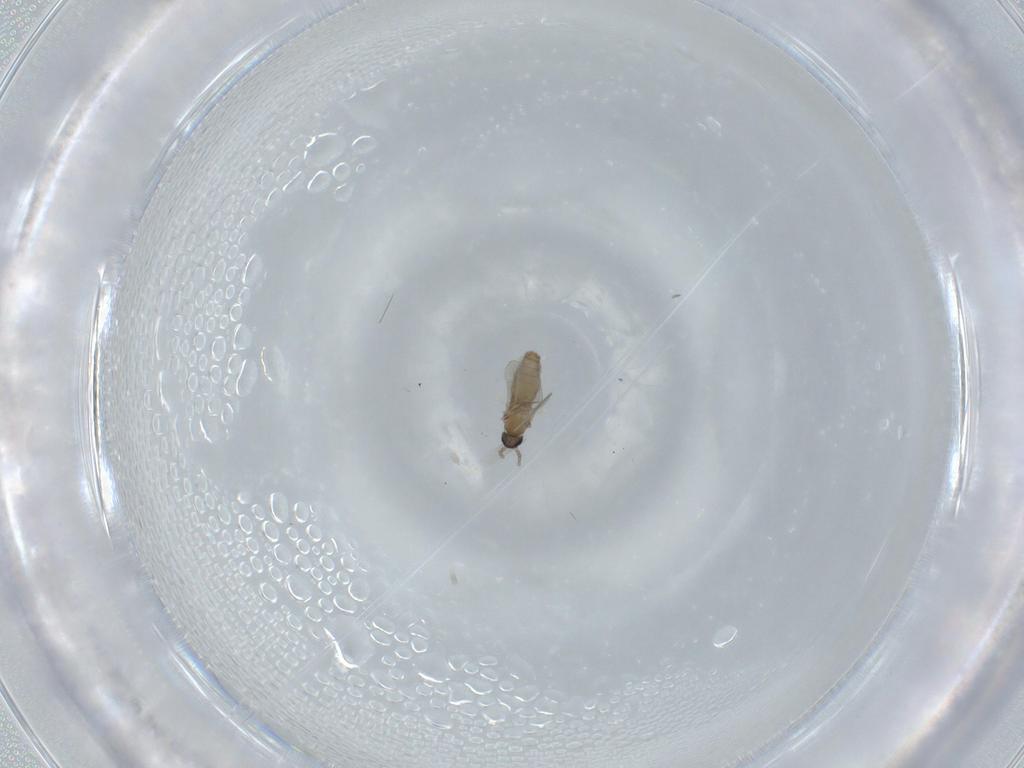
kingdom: Animalia
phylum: Arthropoda
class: Insecta
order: Diptera
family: Cecidomyiidae
